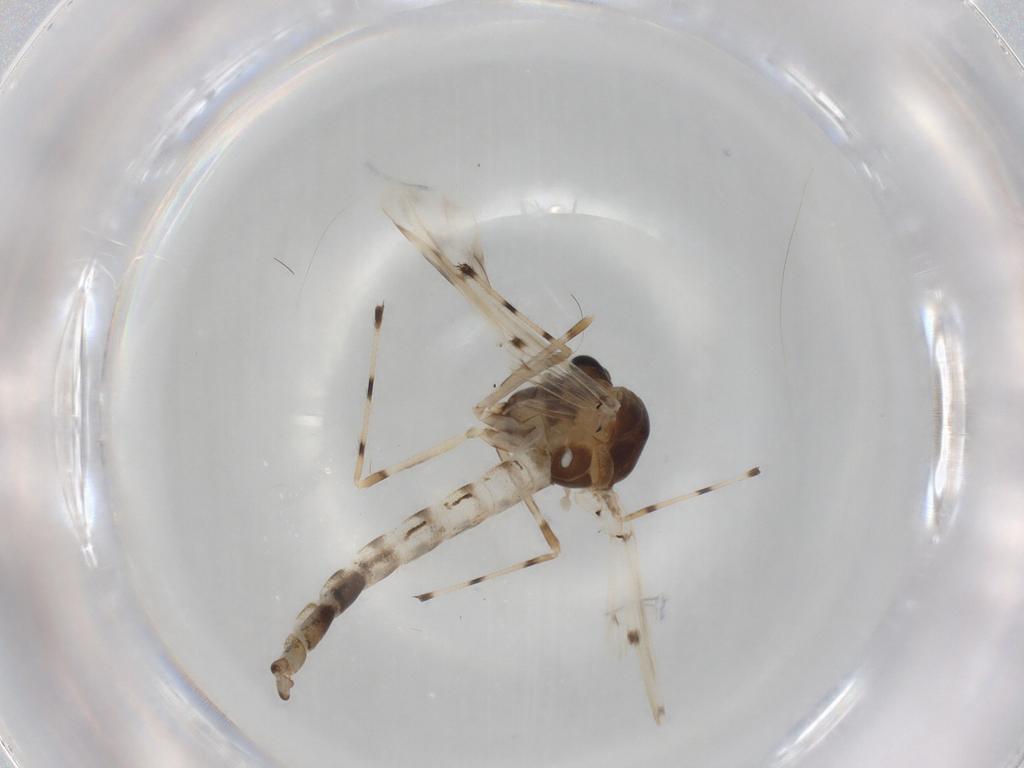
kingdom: Animalia
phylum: Arthropoda
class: Insecta
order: Diptera
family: Chironomidae
